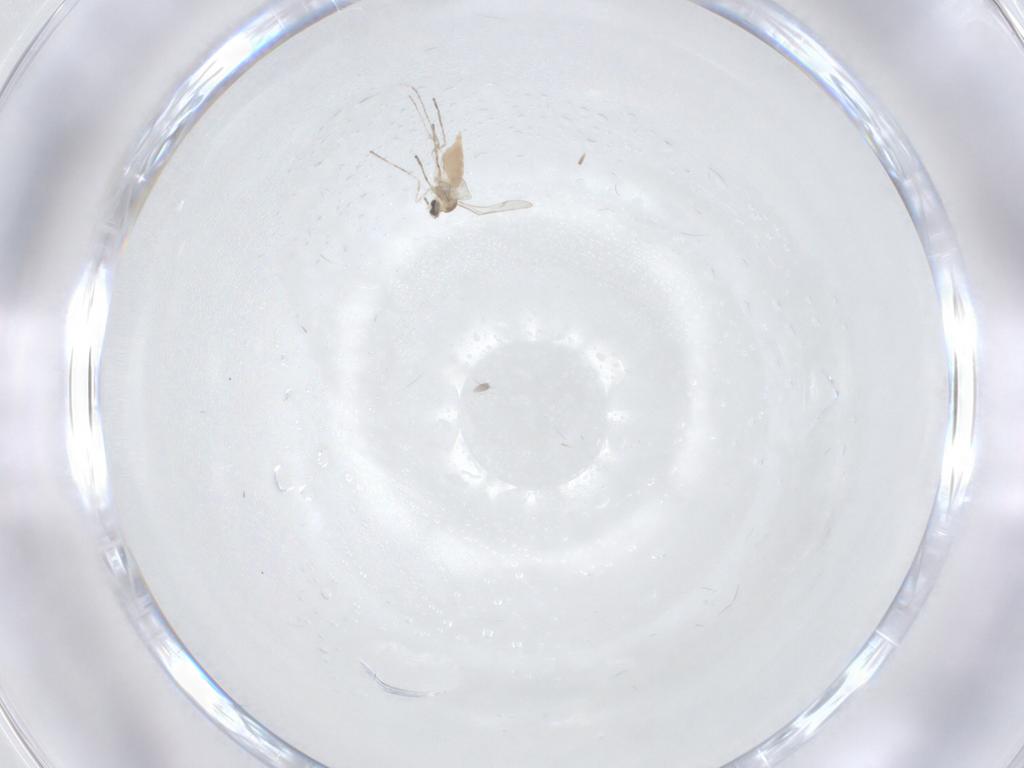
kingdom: Animalia
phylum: Arthropoda
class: Insecta
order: Diptera
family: Cecidomyiidae
